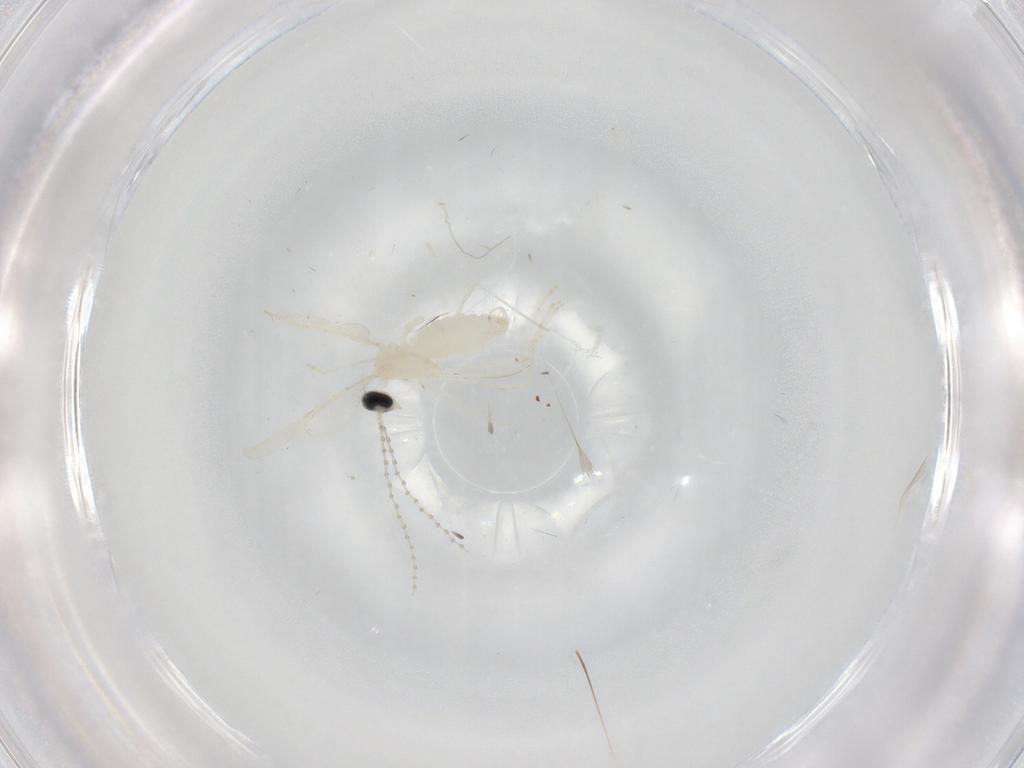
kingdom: Animalia
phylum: Arthropoda
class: Insecta
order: Diptera
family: Cecidomyiidae
